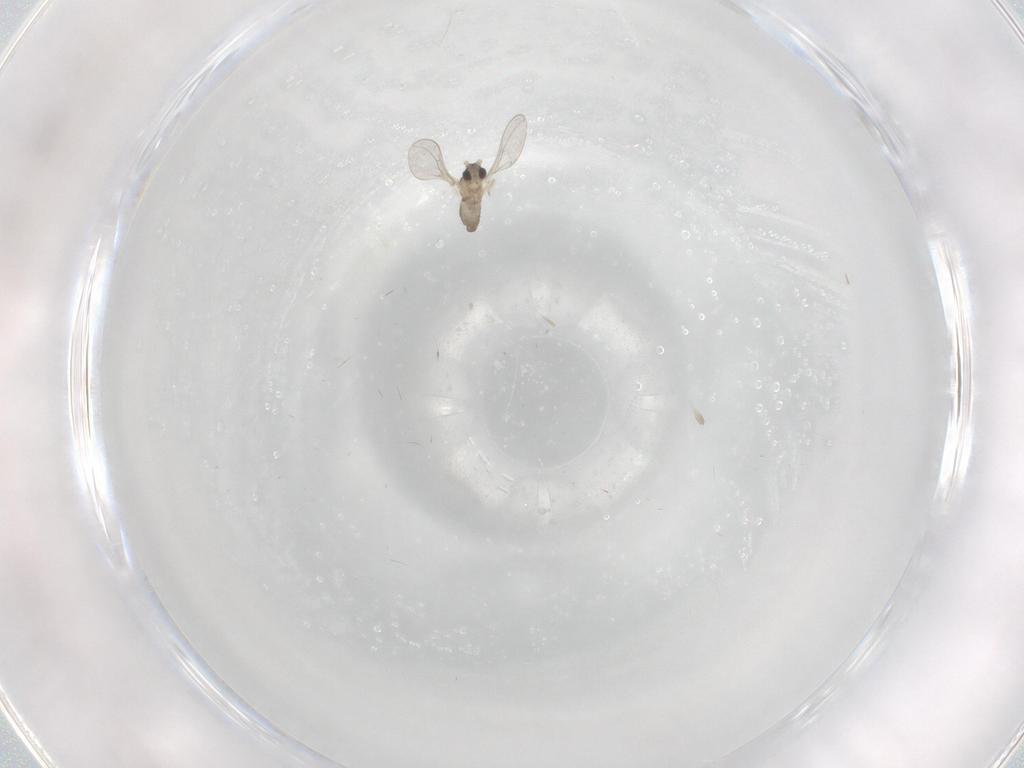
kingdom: Animalia
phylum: Arthropoda
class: Insecta
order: Diptera
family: Cecidomyiidae
